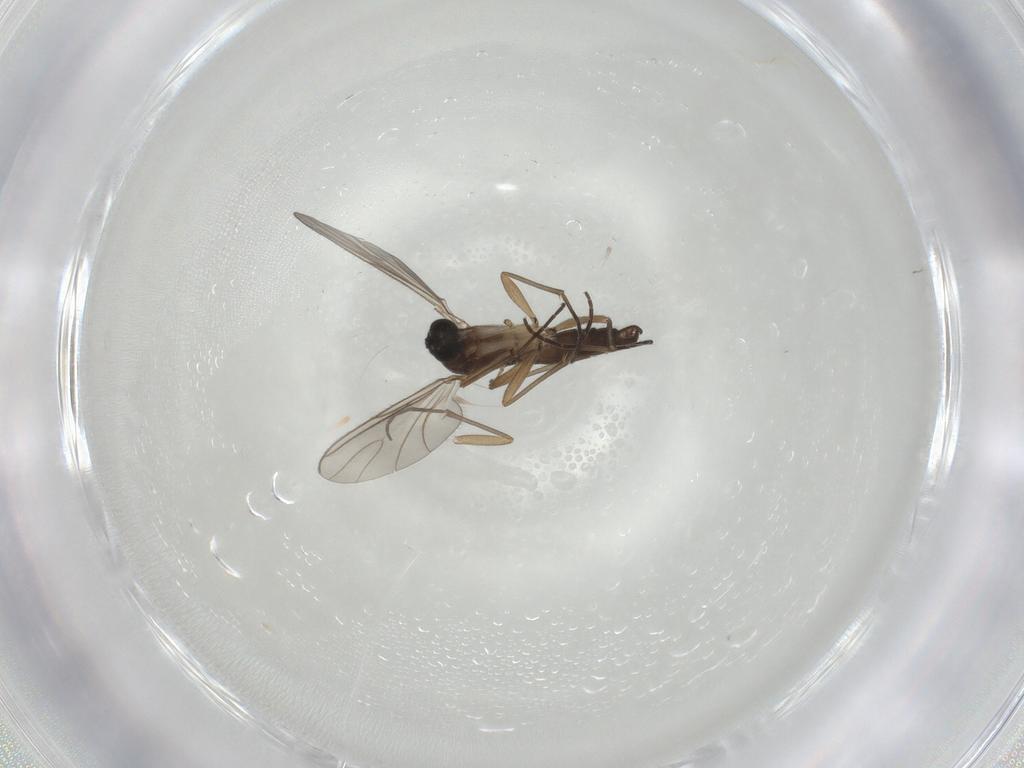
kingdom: Animalia
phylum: Arthropoda
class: Insecta
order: Diptera
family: Sciaridae
